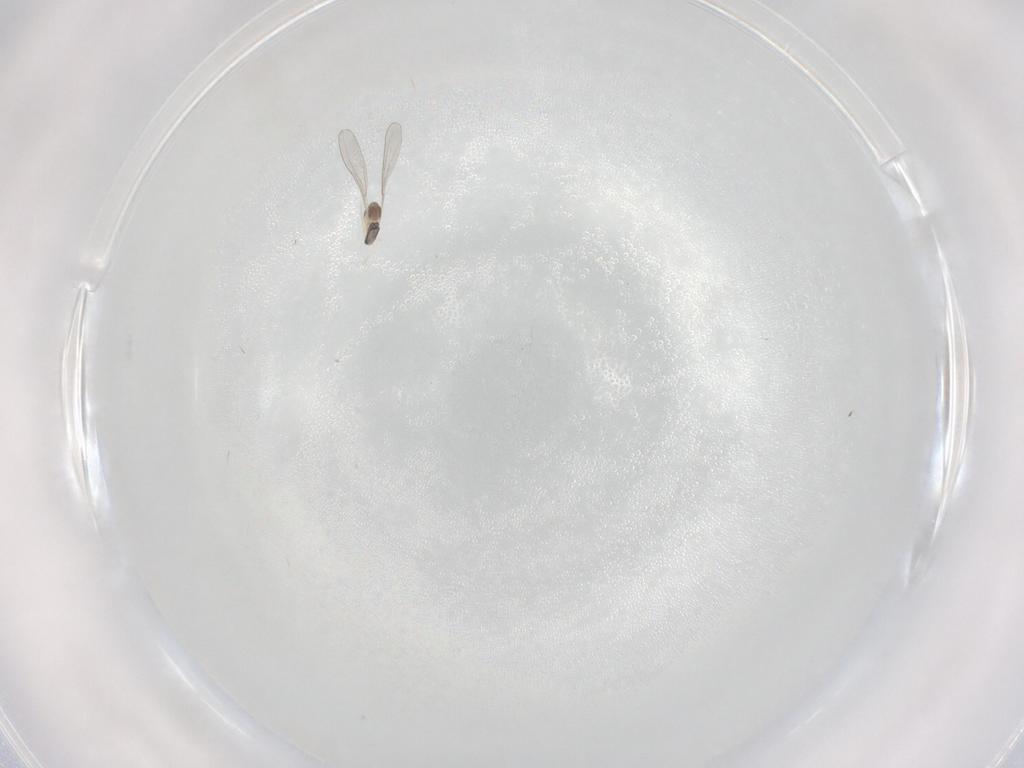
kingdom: Animalia
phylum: Arthropoda
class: Insecta
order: Diptera
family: Cecidomyiidae
